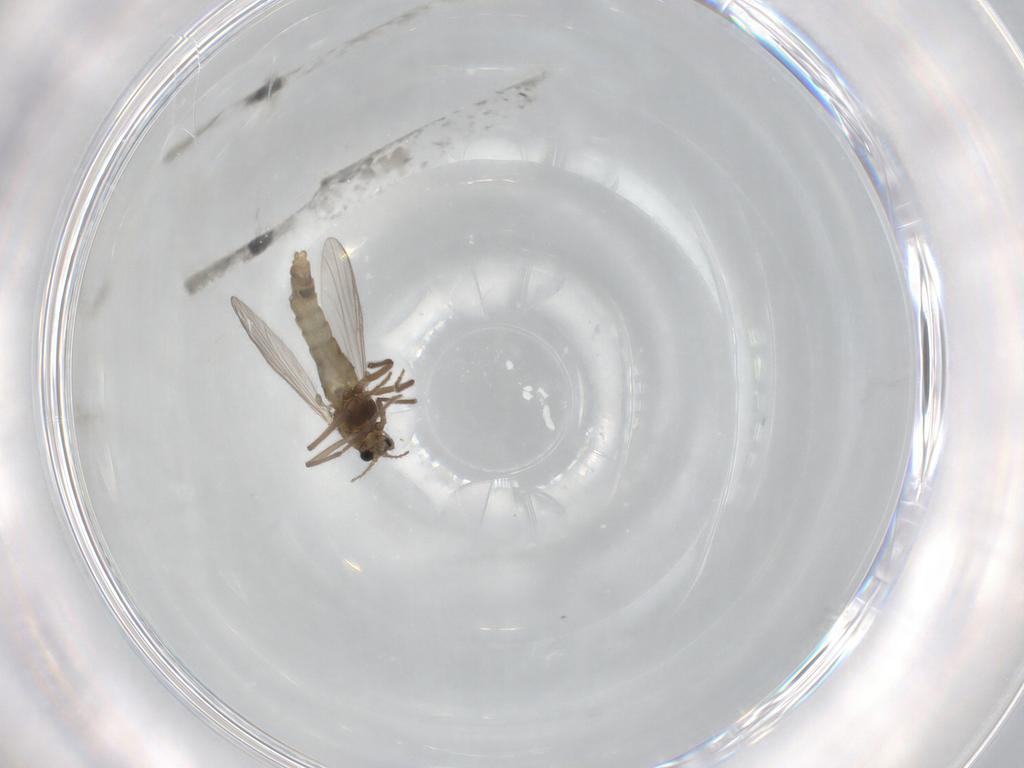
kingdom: Animalia
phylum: Arthropoda
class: Insecta
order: Diptera
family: Chironomidae
